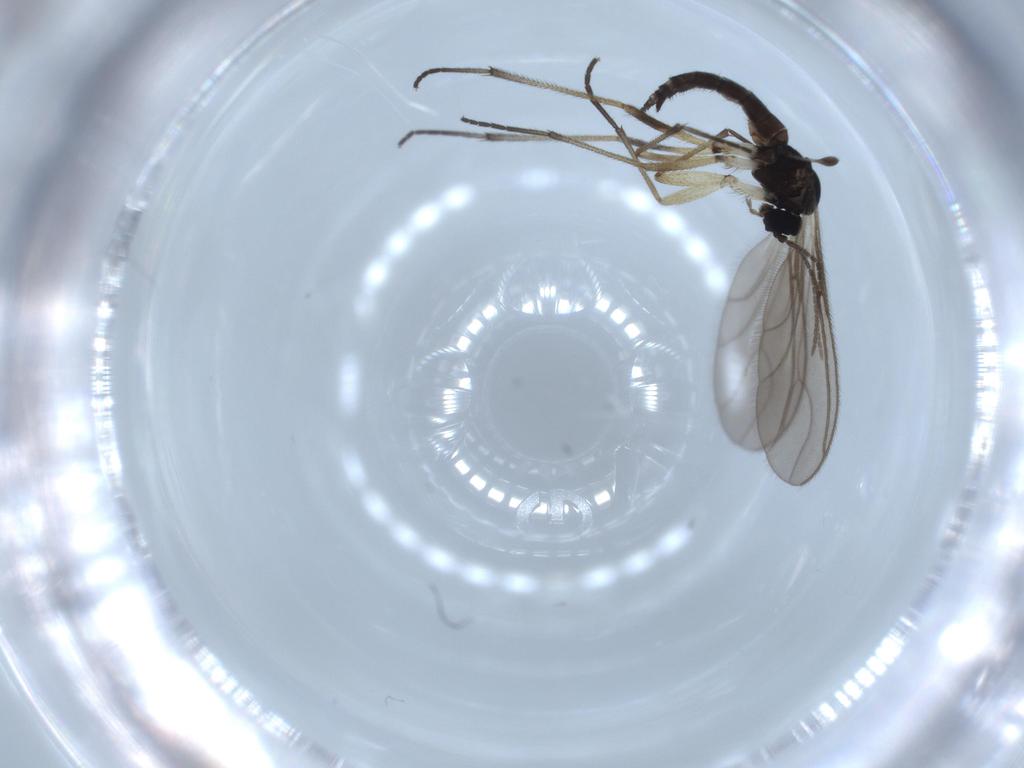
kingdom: Animalia
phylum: Arthropoda
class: Insecta
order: Diptera
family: Sciaridae
